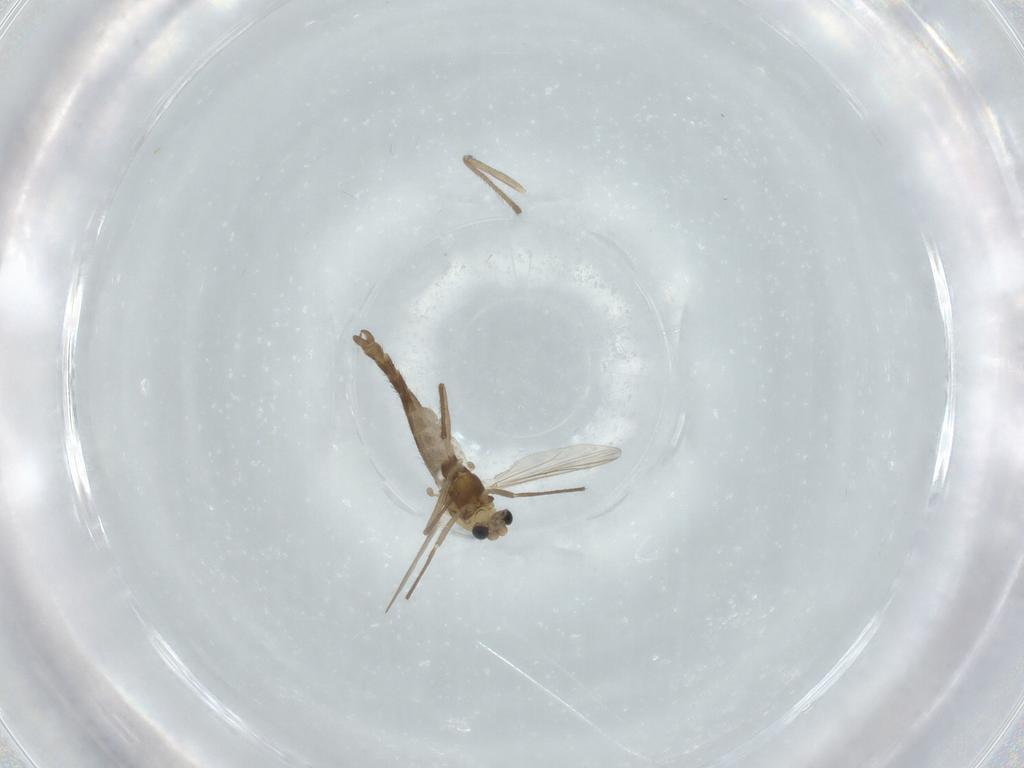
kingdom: Animalia
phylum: Arthropoda
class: Insecta
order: Diptera
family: Chironomidae
